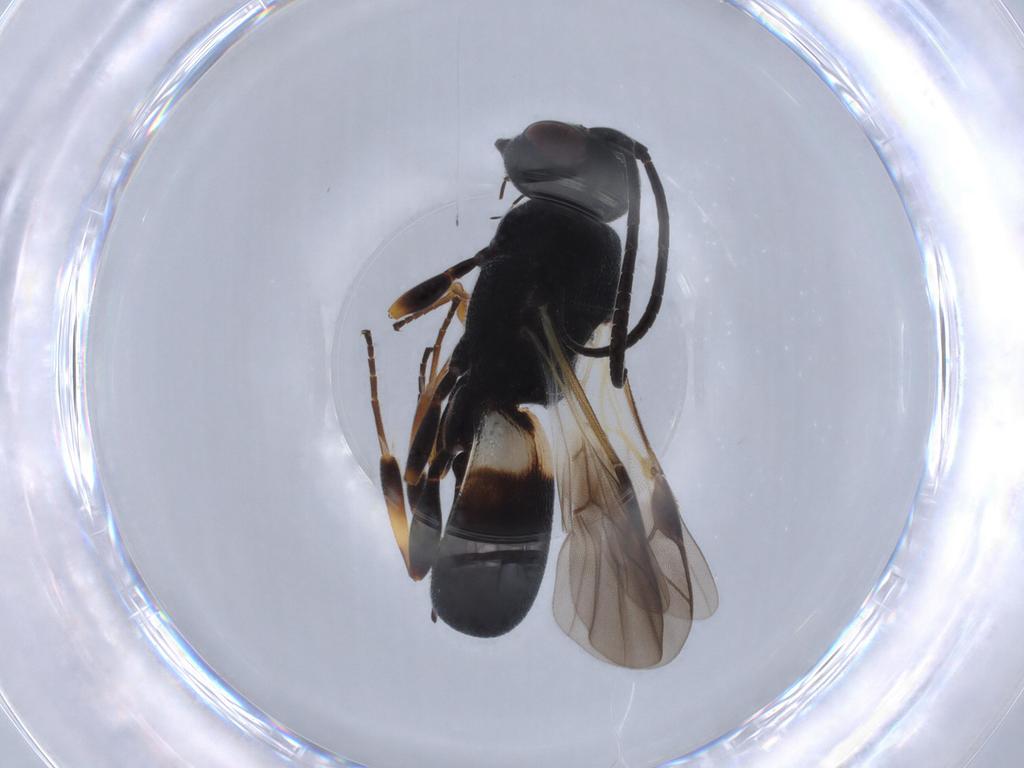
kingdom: Animalia
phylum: Arthropoda
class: Insecta
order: Hymenoptera
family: Braconidae
